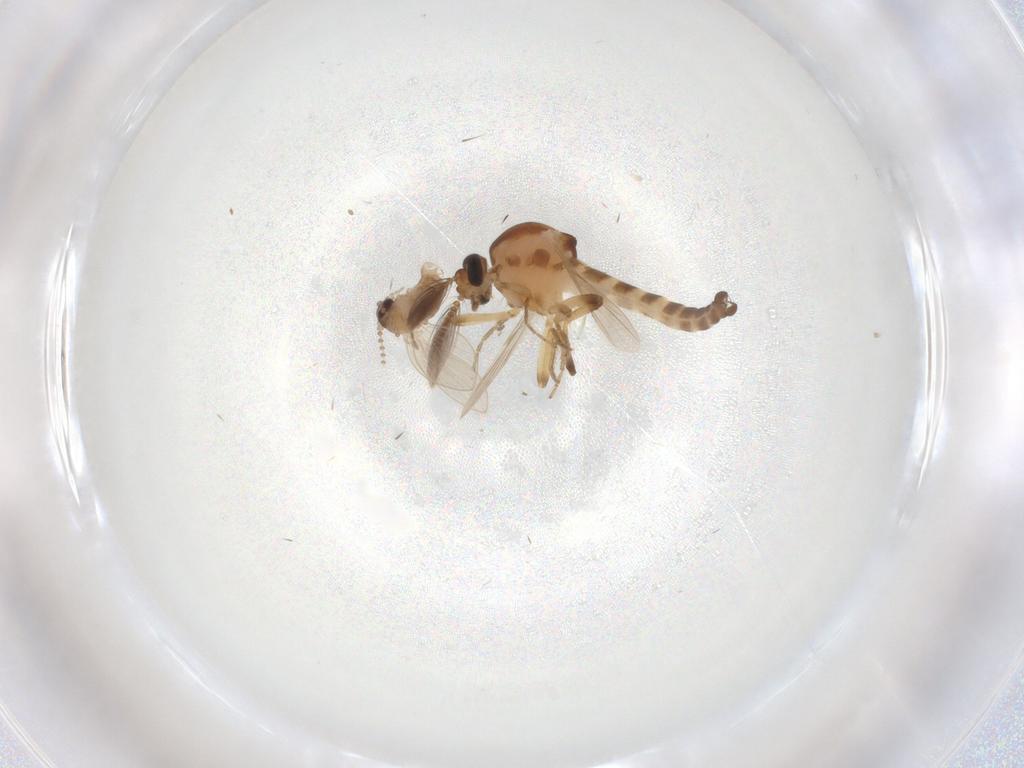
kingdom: Animalia
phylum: Arthropoda
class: Insecta
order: Diptera
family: Ceratopogonidae
